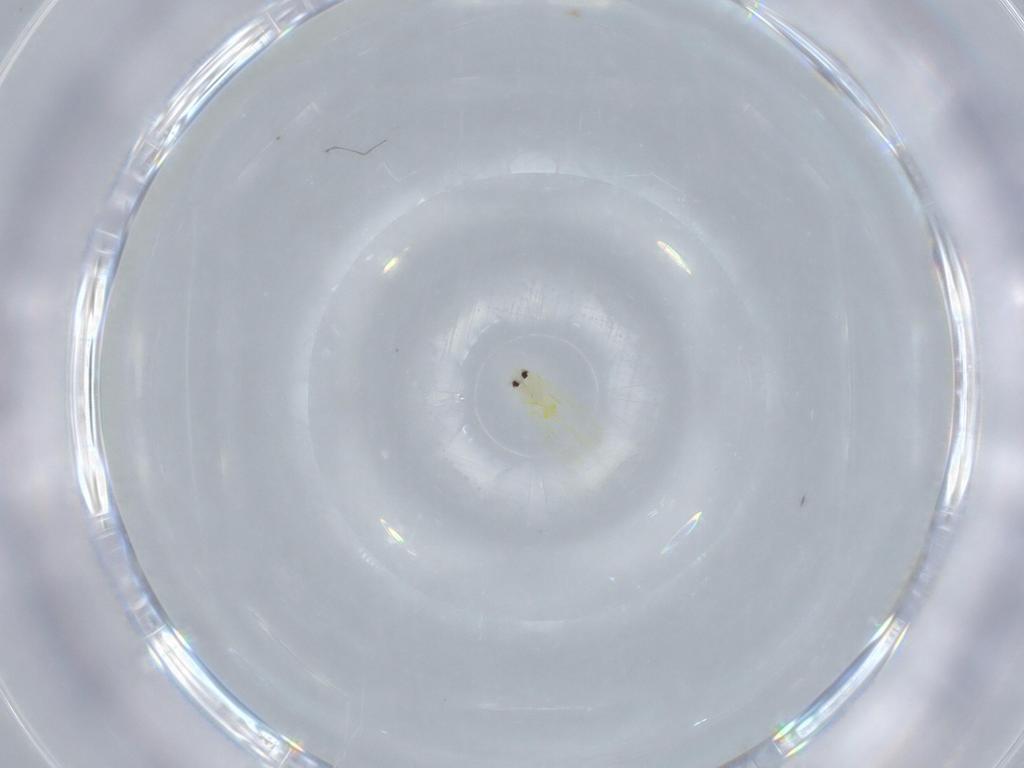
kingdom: Animalia
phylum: Arthropoda
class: Insecta
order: Hemiptera
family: Aleyrodidae
